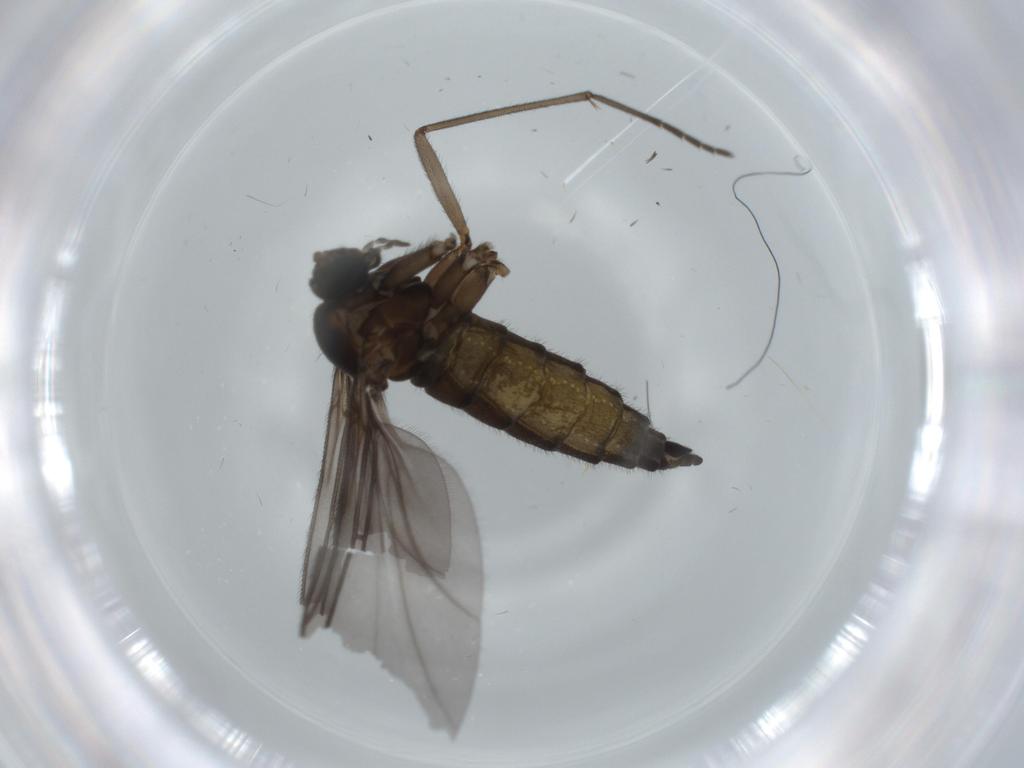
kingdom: Animalia
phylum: Arthropoda
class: Insecta
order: Diptera
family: Sciaridae
